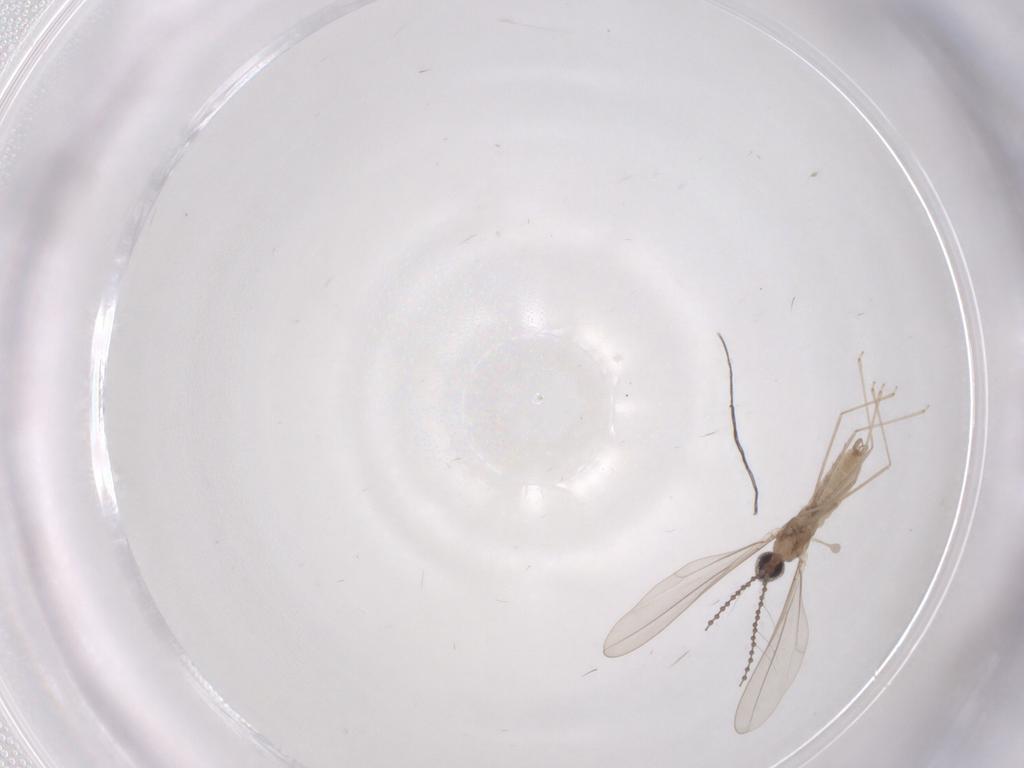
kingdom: Animalia
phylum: Arthropoda
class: Insecta
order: Diptera
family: Cecidomyiidae
